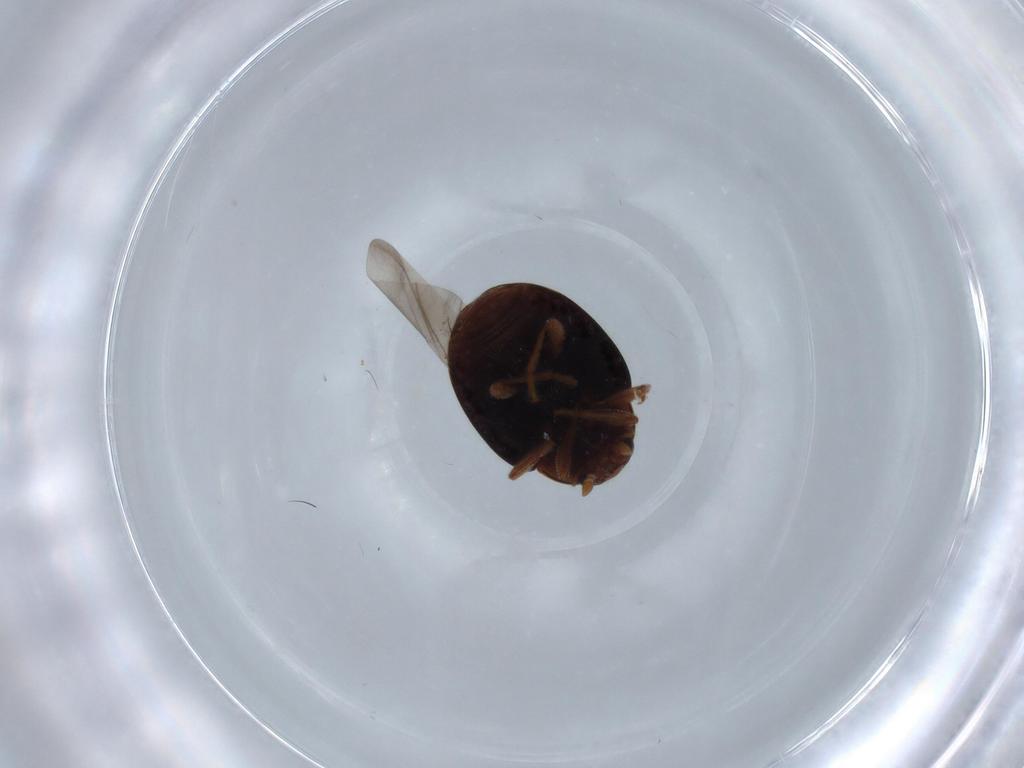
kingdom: Animalia
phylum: Arthropoda
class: Insecta
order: Coleoptera
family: Coccinellidae
